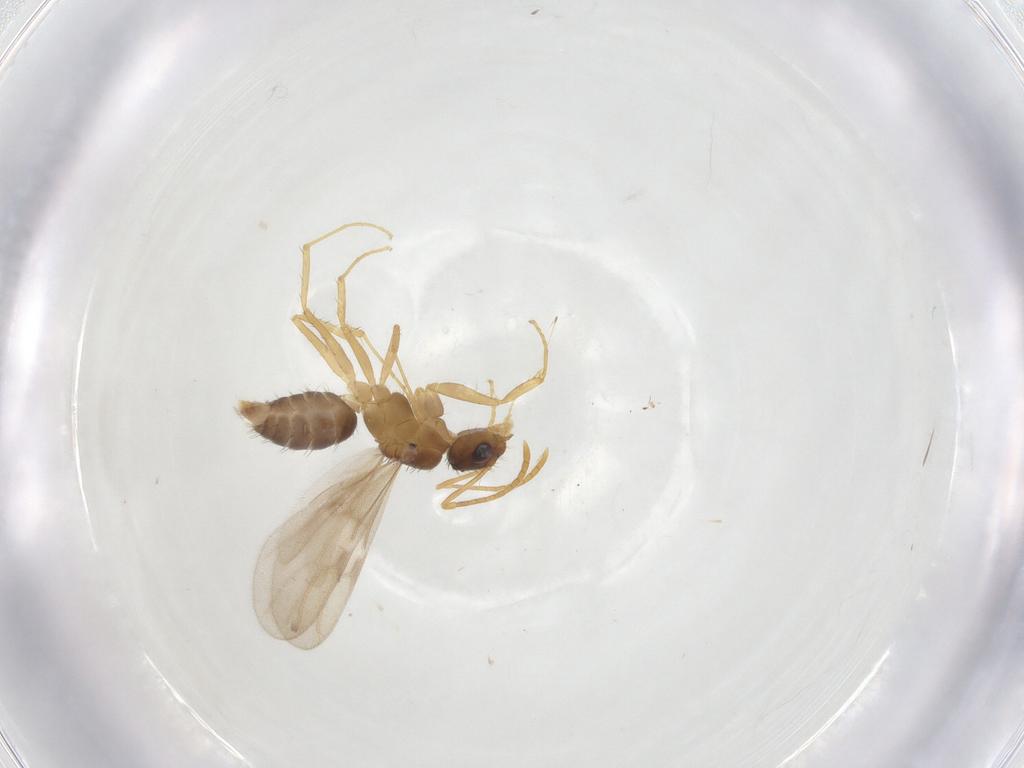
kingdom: Animalia
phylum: Arthropoda
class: Insecta
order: Hymenoptera
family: Formicidae
